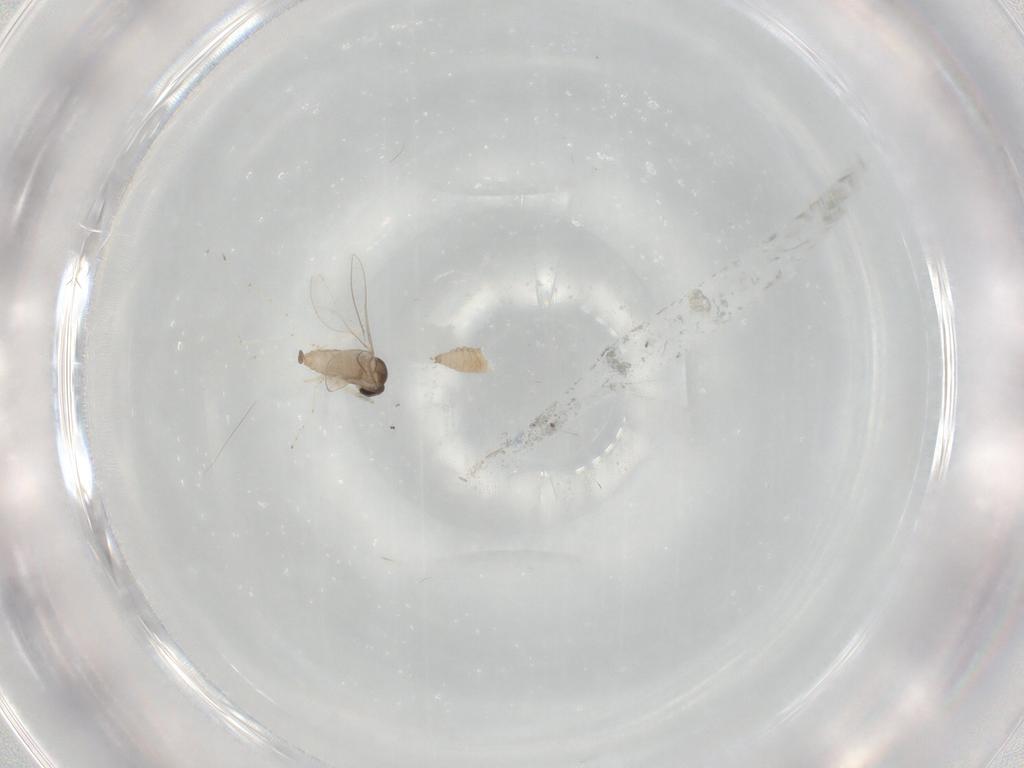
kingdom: Animalia
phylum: Arthropoda
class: Insecta
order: Diptera
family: Cecidomyiidae
